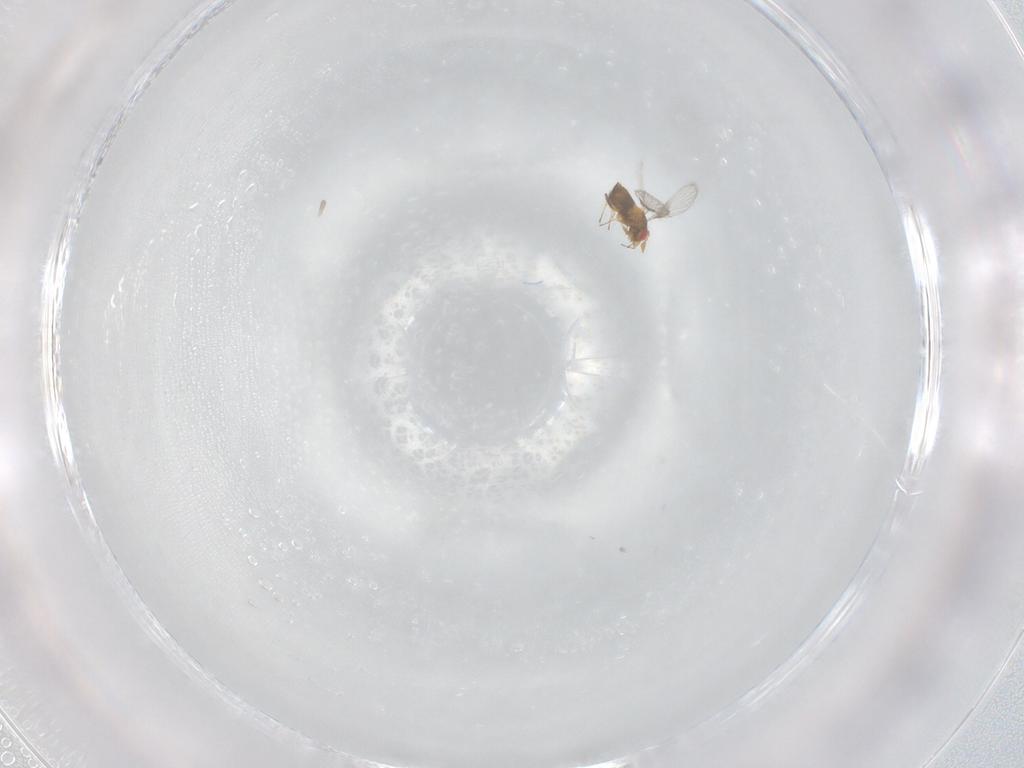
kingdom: Animalia
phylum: Arthropoda
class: Insecta
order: Hymenoptera
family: Trichogrammatidae
